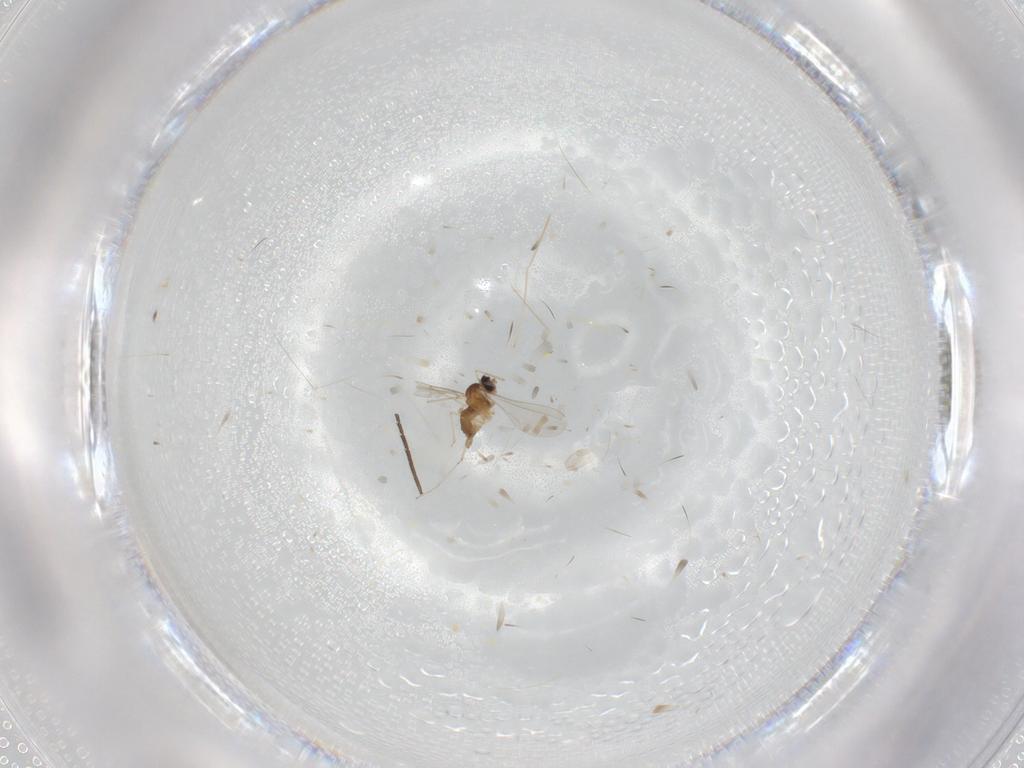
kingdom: Animalia
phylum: Arthropoda
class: Insecta
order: Diptera
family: Cecidomyiidae
